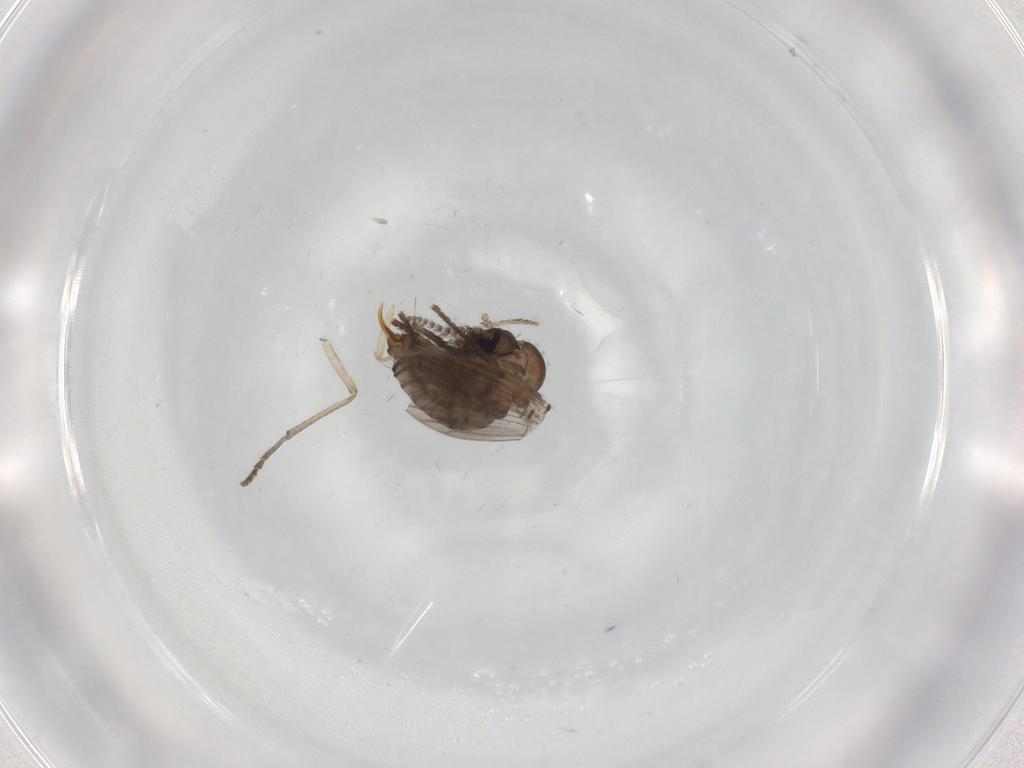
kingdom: Animalia
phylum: Arthropoda
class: Insecta
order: Diptera
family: Psychodidae
